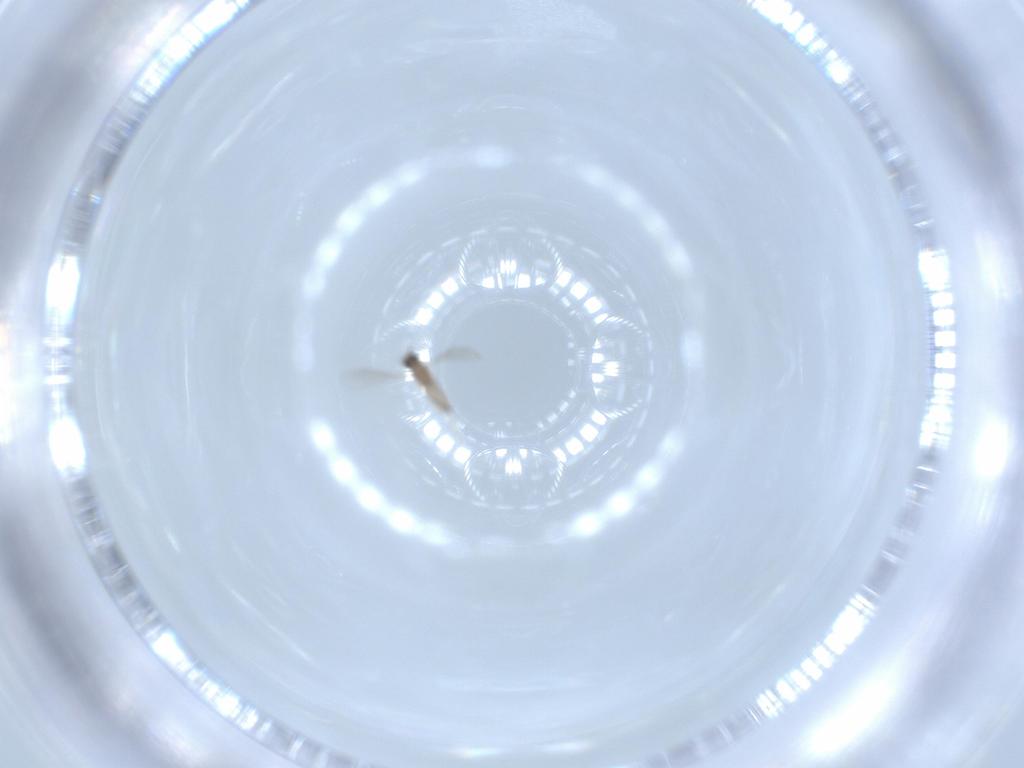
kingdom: Animalia
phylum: Arthropoda
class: Insecta
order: Diptera
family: Cecidomyiidae
